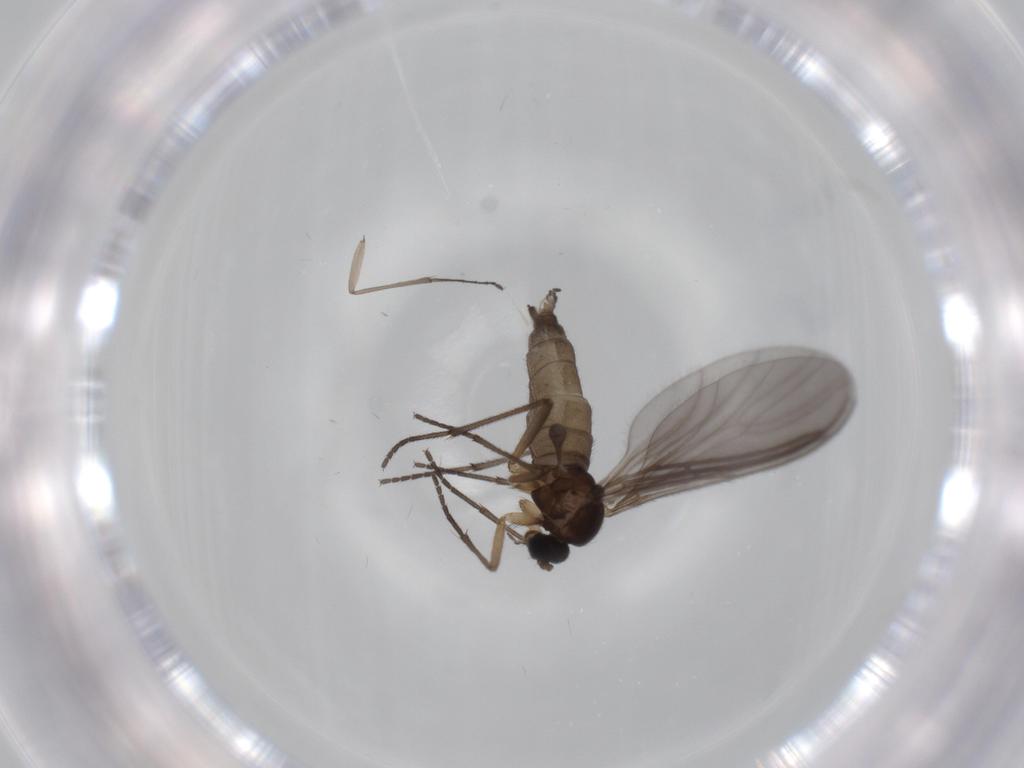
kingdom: Animalia
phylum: Arthropoda
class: Insecta
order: Diptera
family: Sciaridae
